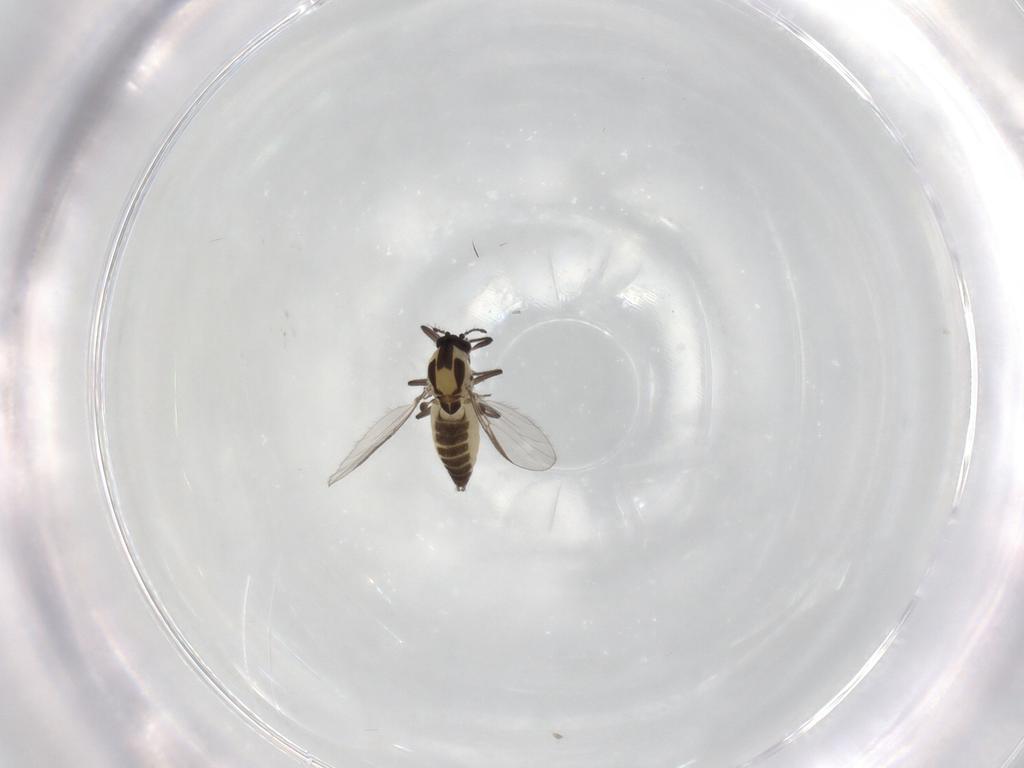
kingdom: Animalia
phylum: Arthropoda
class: Insecta
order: Diptera
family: Chironomidae
